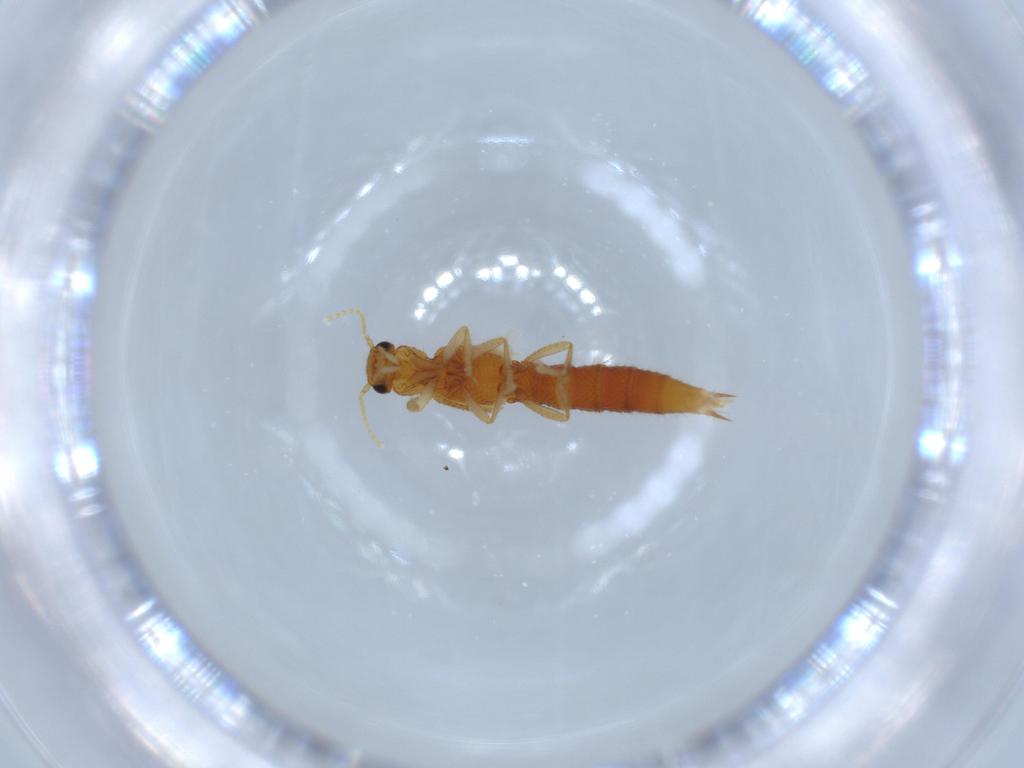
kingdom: Animalia
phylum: Arthropoda
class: Insecta
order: Coleoptera
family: Staphylinidae
